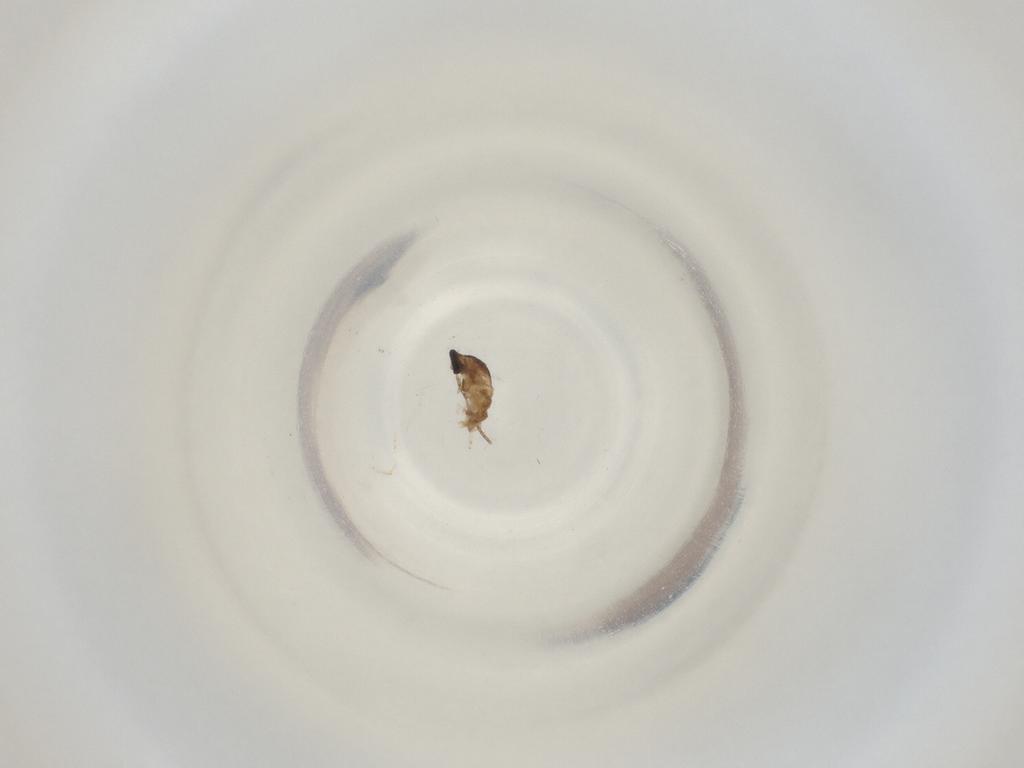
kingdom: Animalia
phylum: Arthropoda
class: Insecta
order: Diptera
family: Cecidomyiidae
